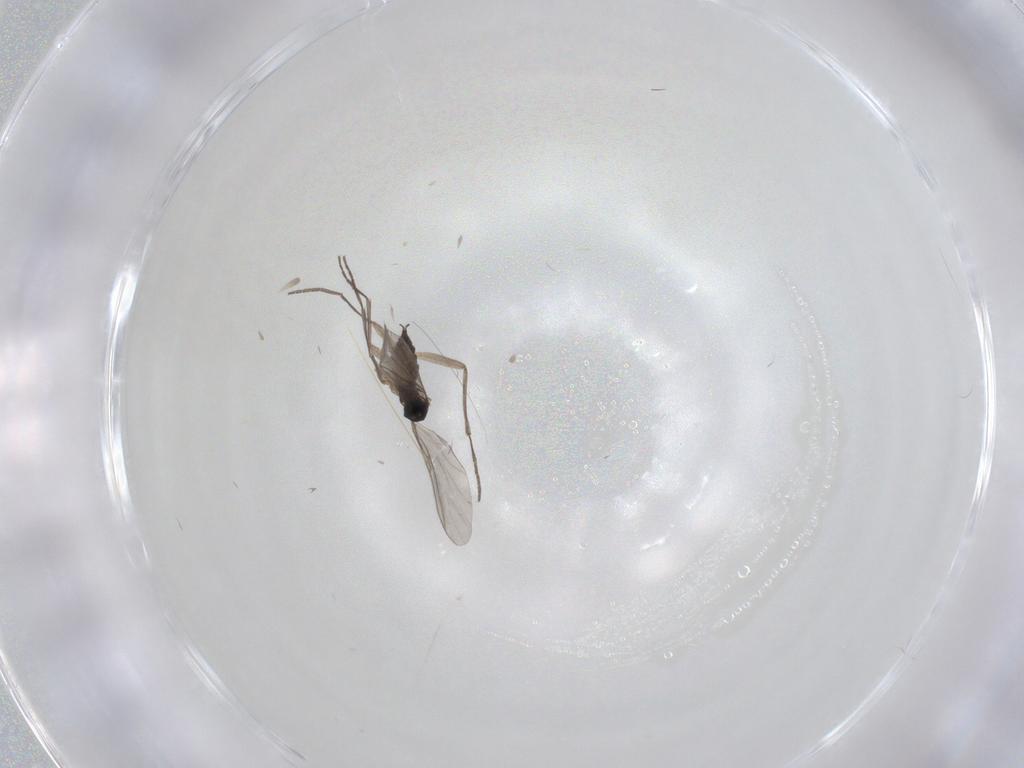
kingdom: Animalia
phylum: Arthropoda
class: Insecta
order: Diptera
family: Sciaridae
